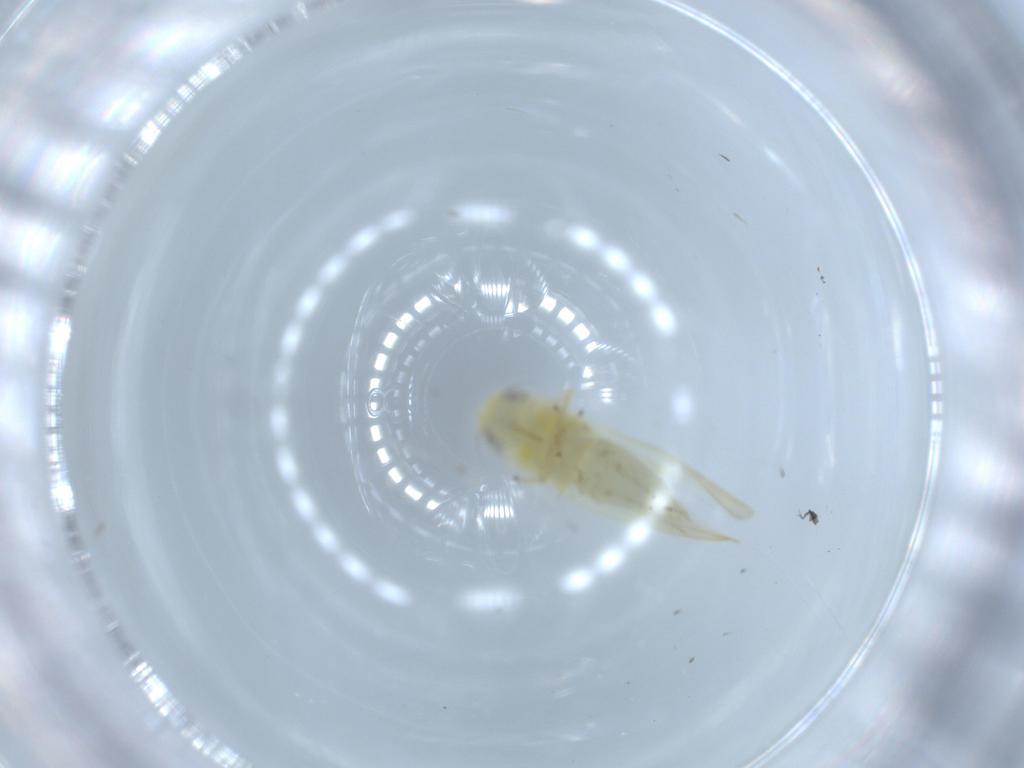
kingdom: Animalia
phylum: Arthropoda
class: Insecta
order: Hemiptera
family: Cicadellidae
